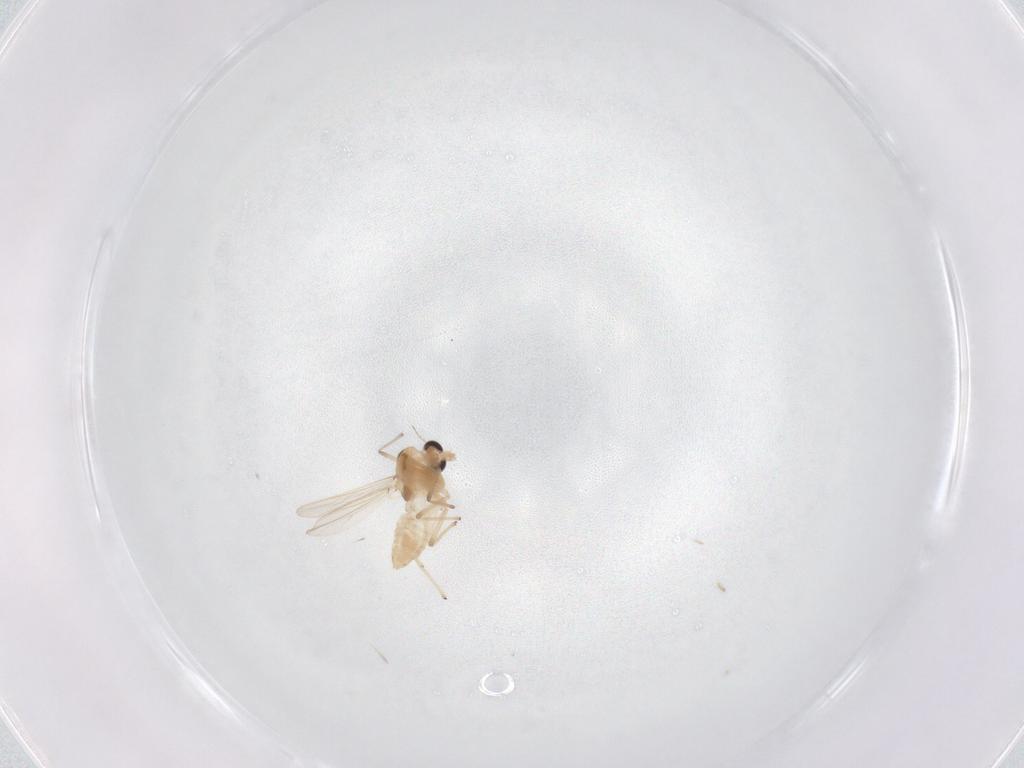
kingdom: Animalia
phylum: Arthropoda
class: Insecta
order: Diptera
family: Chironomidae
